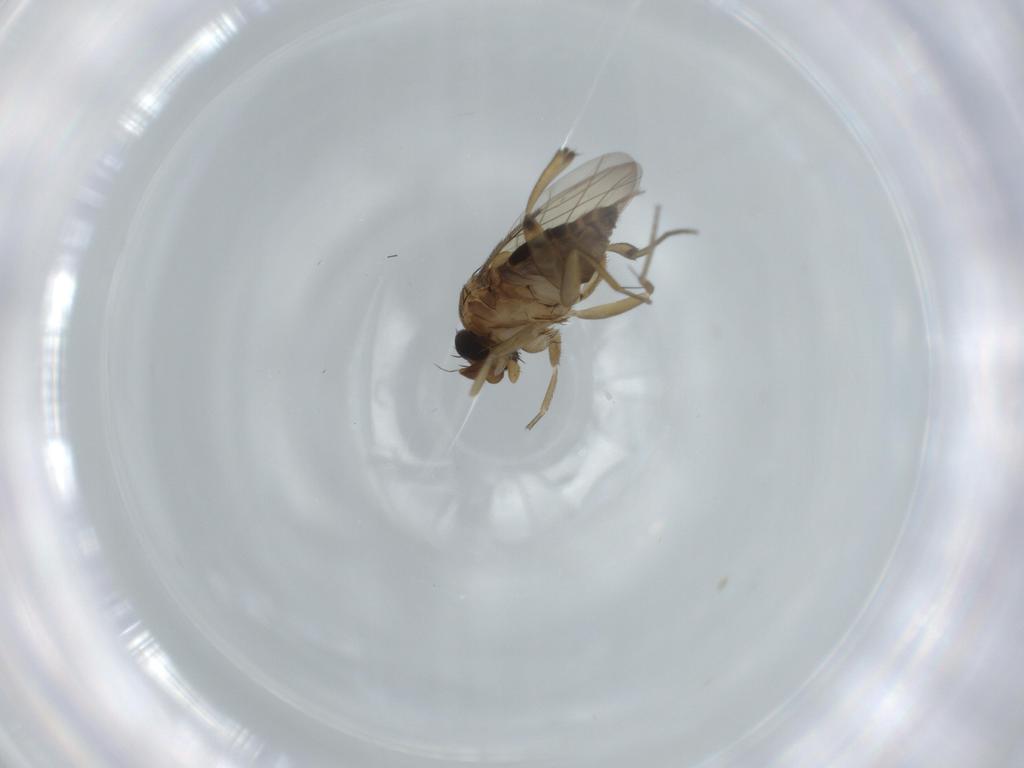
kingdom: Animalia
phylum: Arthropoda
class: Insecta
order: Diptera
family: Phoridae
